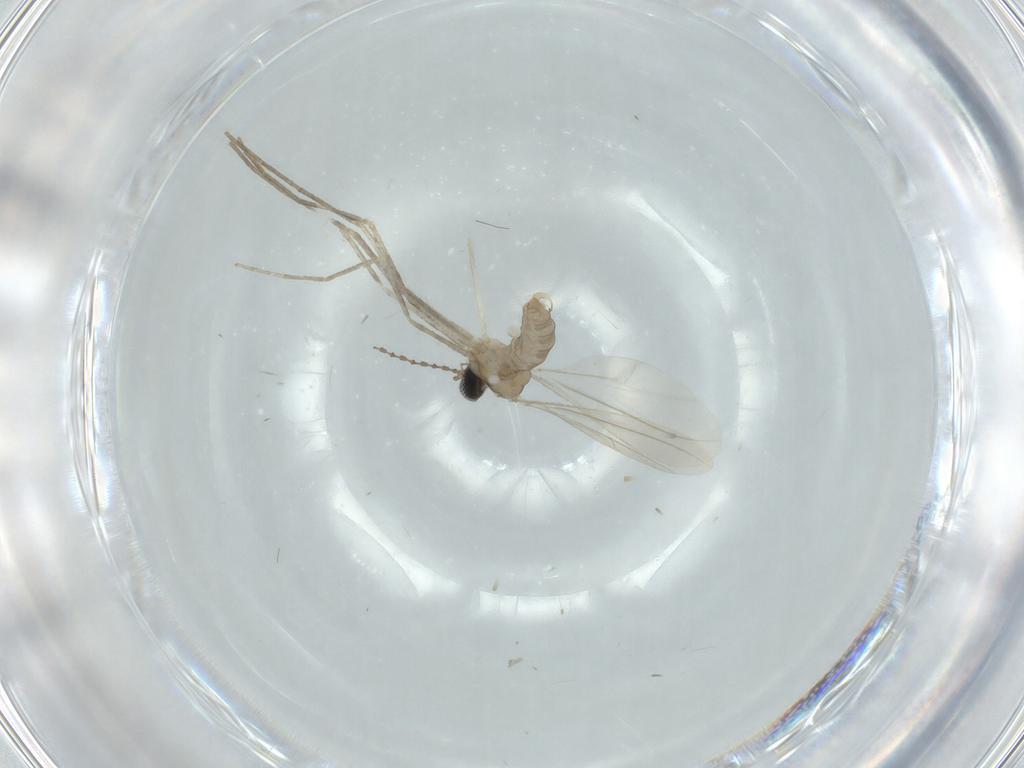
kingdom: Animalia
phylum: Arthropoda
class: Insecta
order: Diptera
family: Cecidomyiidae
